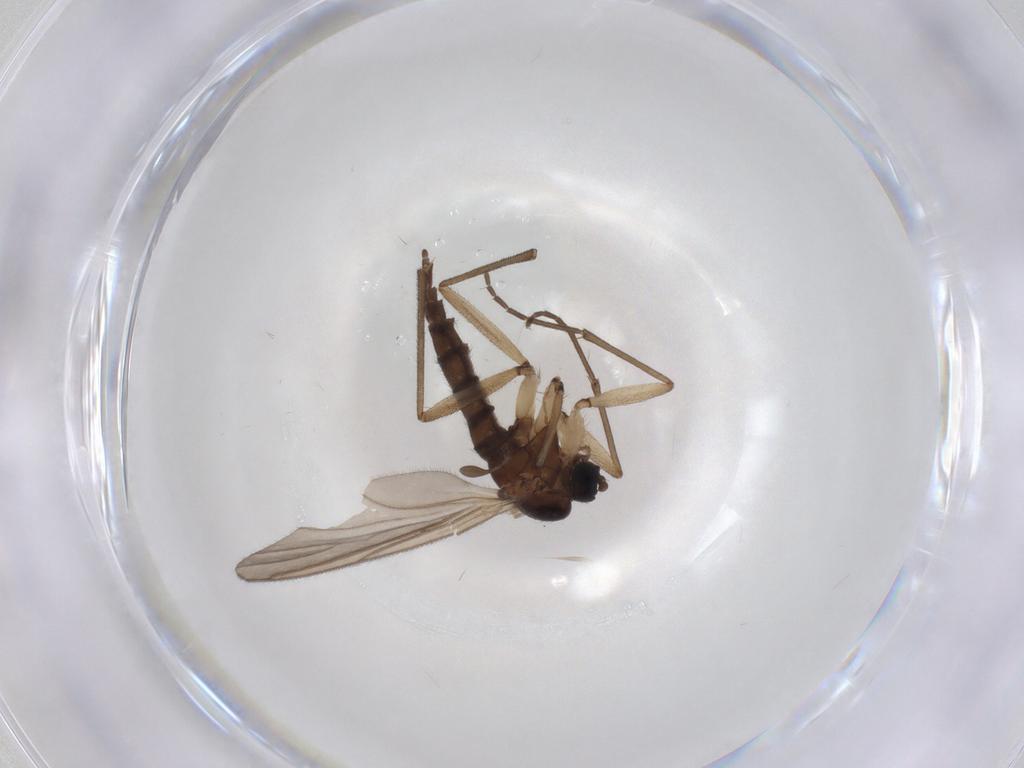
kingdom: Animalia
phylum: Arthropoda
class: Insecta
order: Diptera
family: Sciaridae
